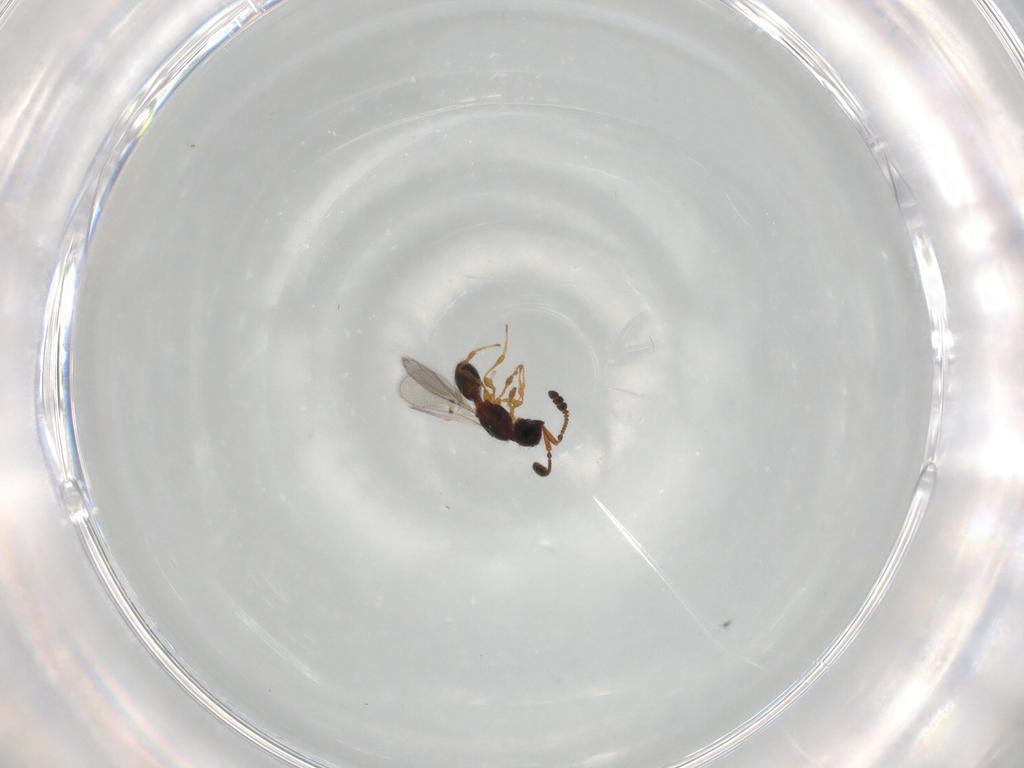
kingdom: Animalia
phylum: Arthropoda
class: Insecta
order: Hymenoptera
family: Diapriidae
